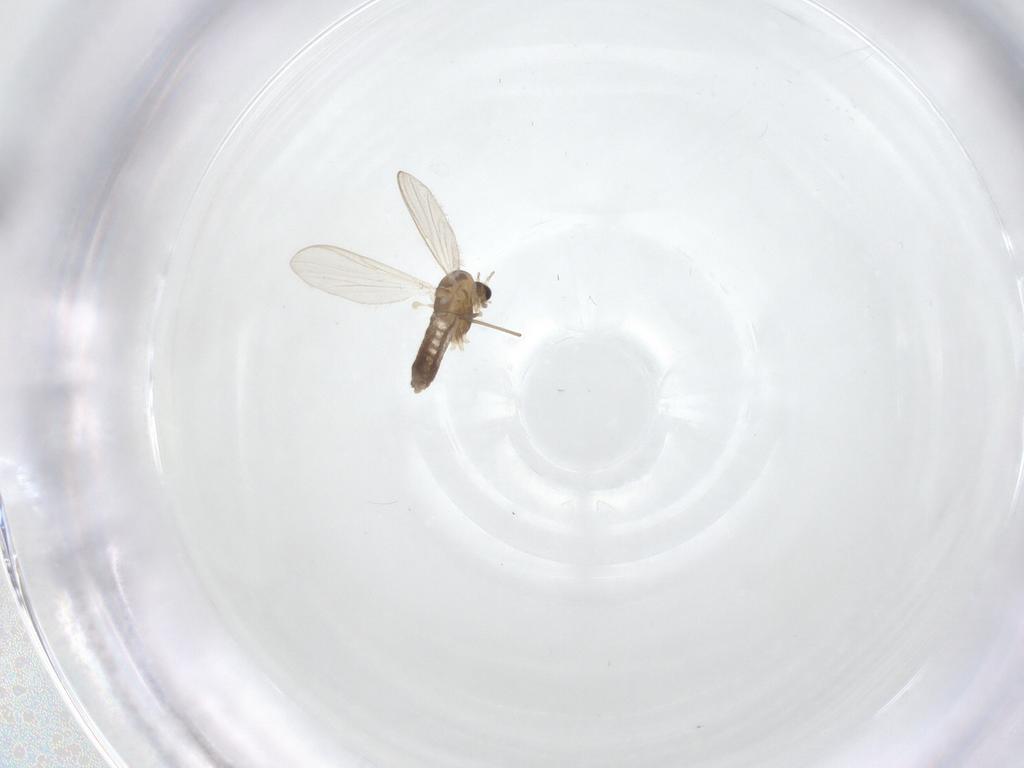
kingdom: Animalia
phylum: Arthropoda
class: Insecta
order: Diptera
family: Chironomidae
